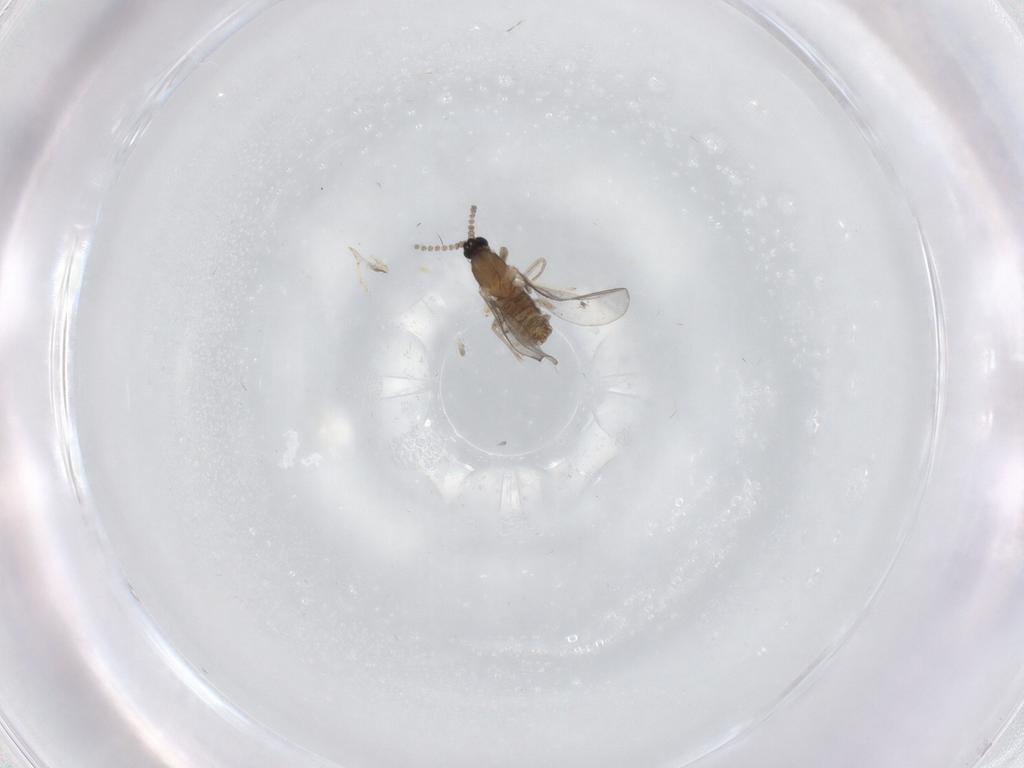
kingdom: Animalia
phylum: Arthropoda
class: Insecta
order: Diptera
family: Cecidomyiidae
